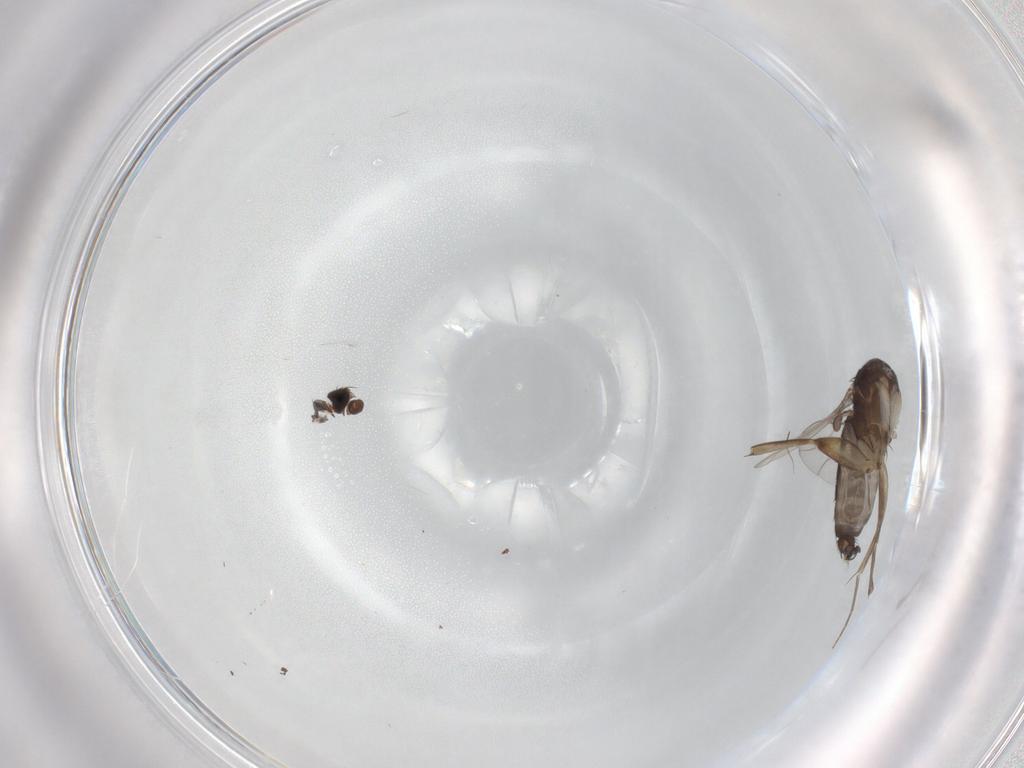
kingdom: Animalia
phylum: Arthropoda
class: Insecta
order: Diptera
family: Phoridae
